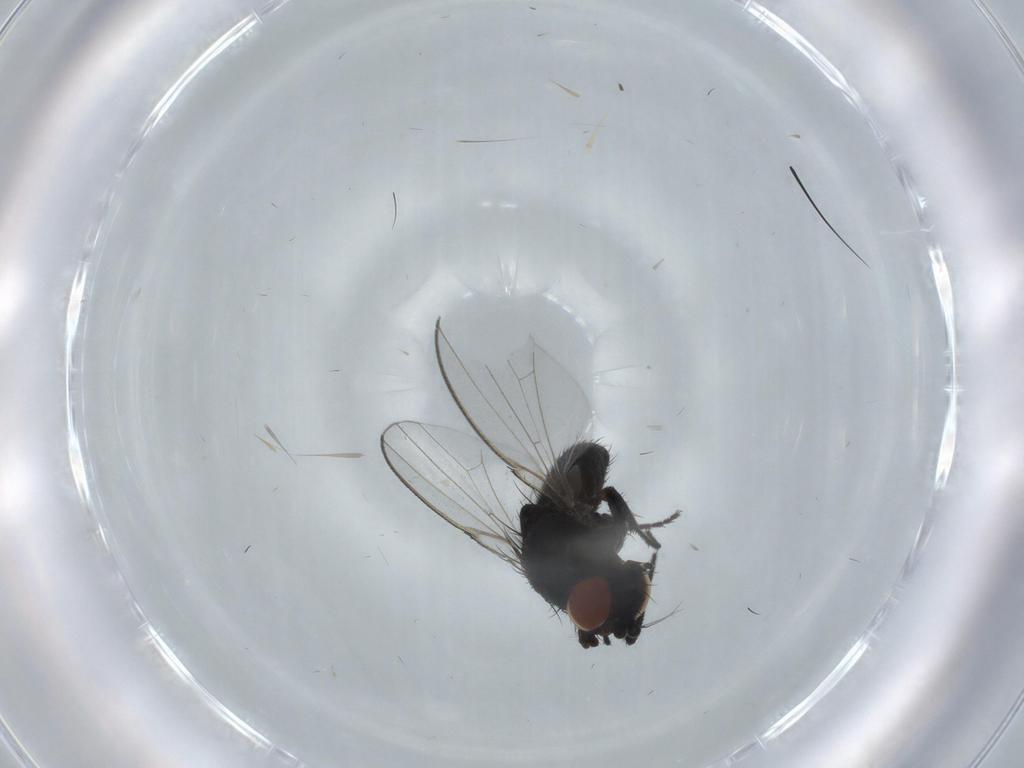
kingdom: Animalia
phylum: Arthropoda
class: Insecta
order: Diptera
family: Milichiidae
